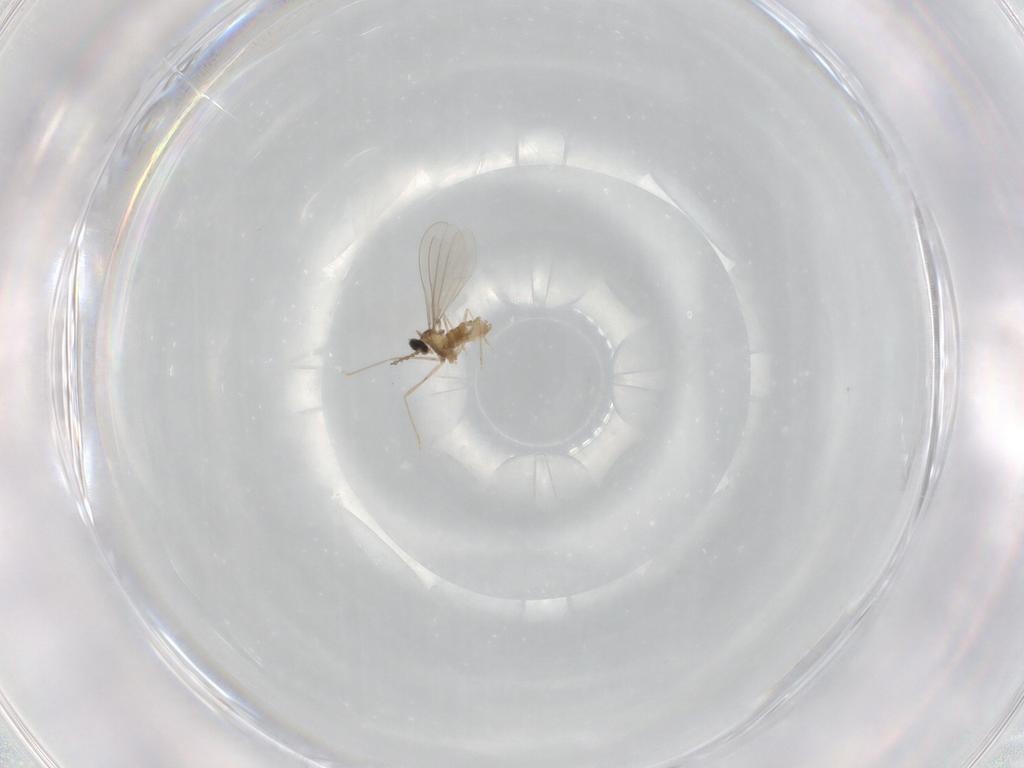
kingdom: Animalia
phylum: Arthropoda
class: Insecta
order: Diptera
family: Cecidomyiidae
